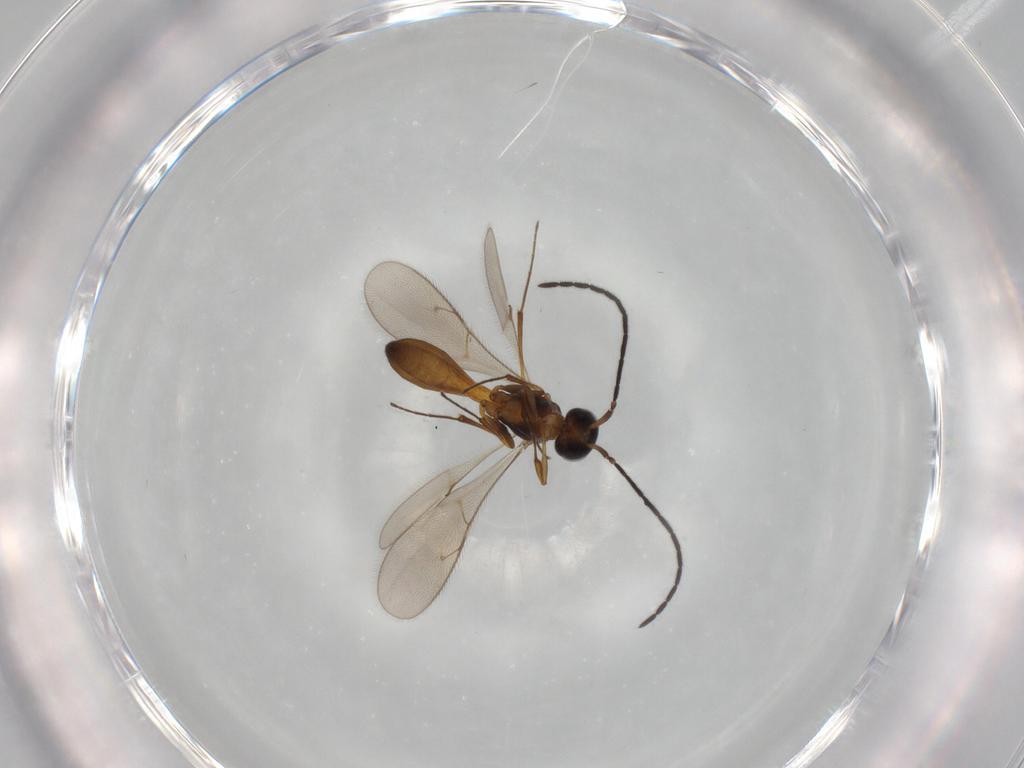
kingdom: Animalia
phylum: Arthropoda
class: Insecta
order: Hymenoptera
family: Scelionidae
